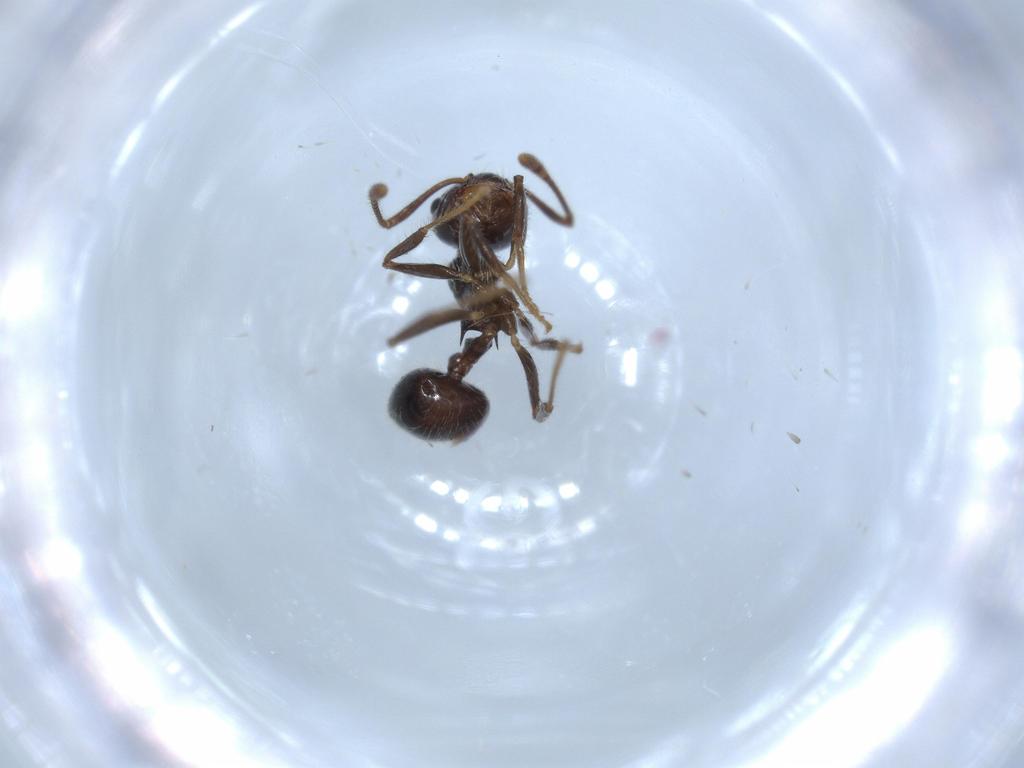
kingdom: Animalia
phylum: Arthropoda
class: Insecta
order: Hymenoptera
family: Formicidae
